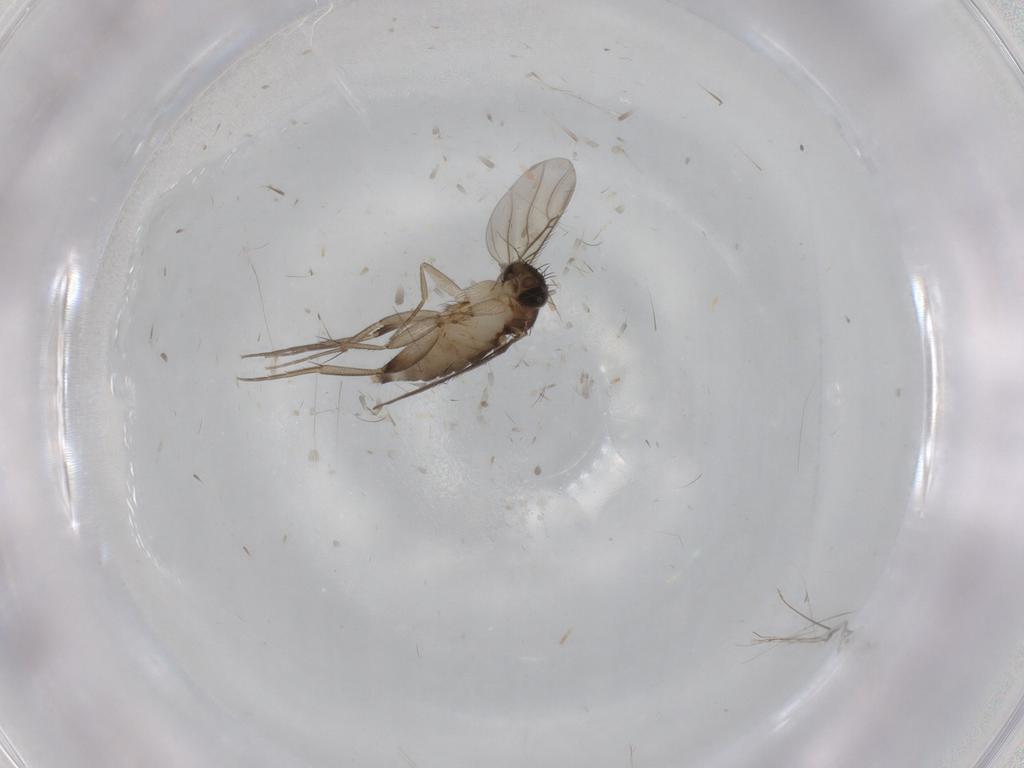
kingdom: Animalia
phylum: Arthropoda
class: Insecta
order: Diptera
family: Phoridae
